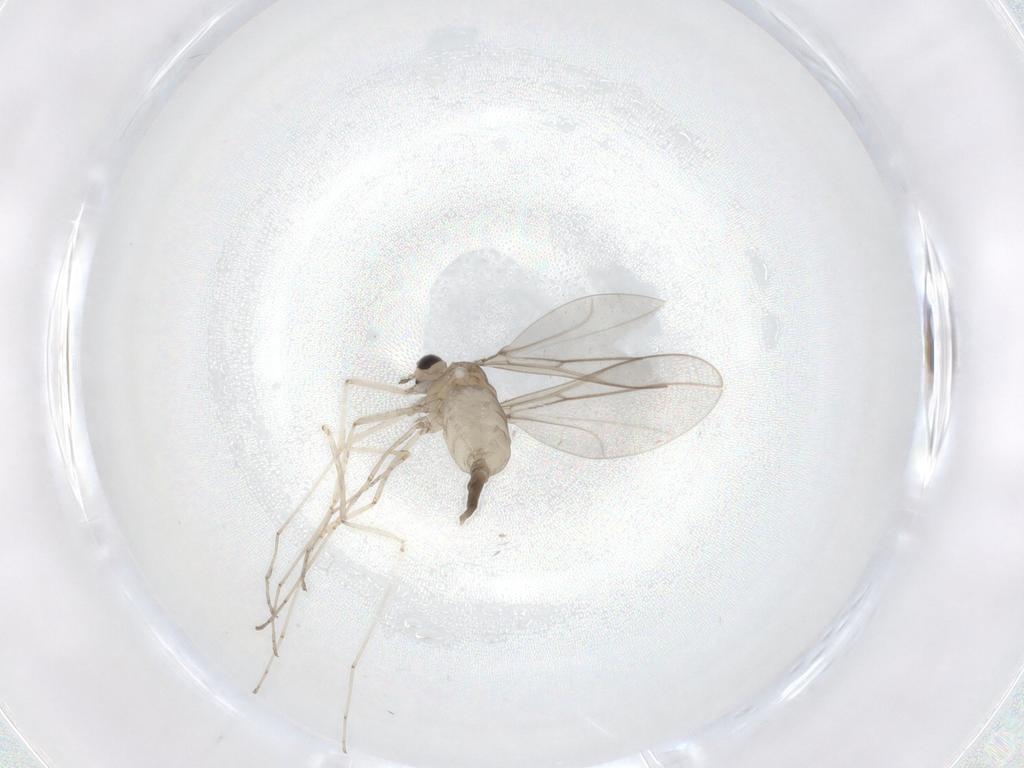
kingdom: Animalia
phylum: Arthropoda
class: Insecta
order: Diptera
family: Cecidomyiidae
